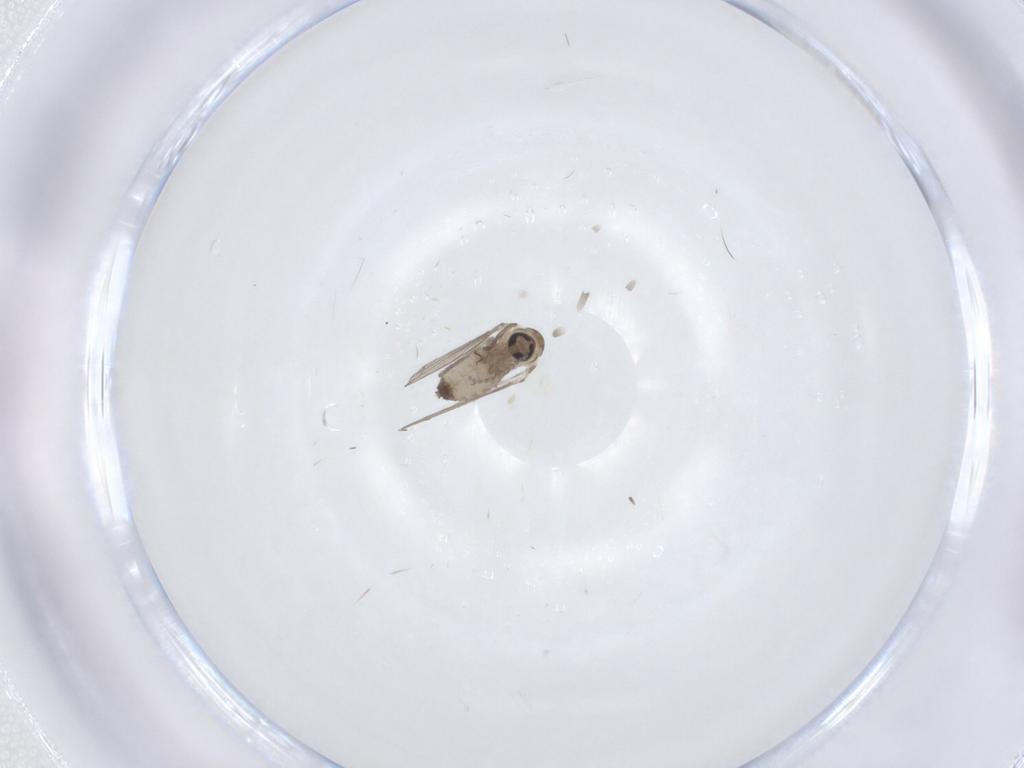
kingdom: Animalia
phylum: Arthropoda
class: Insecta
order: Diptera
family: Psychodidae
